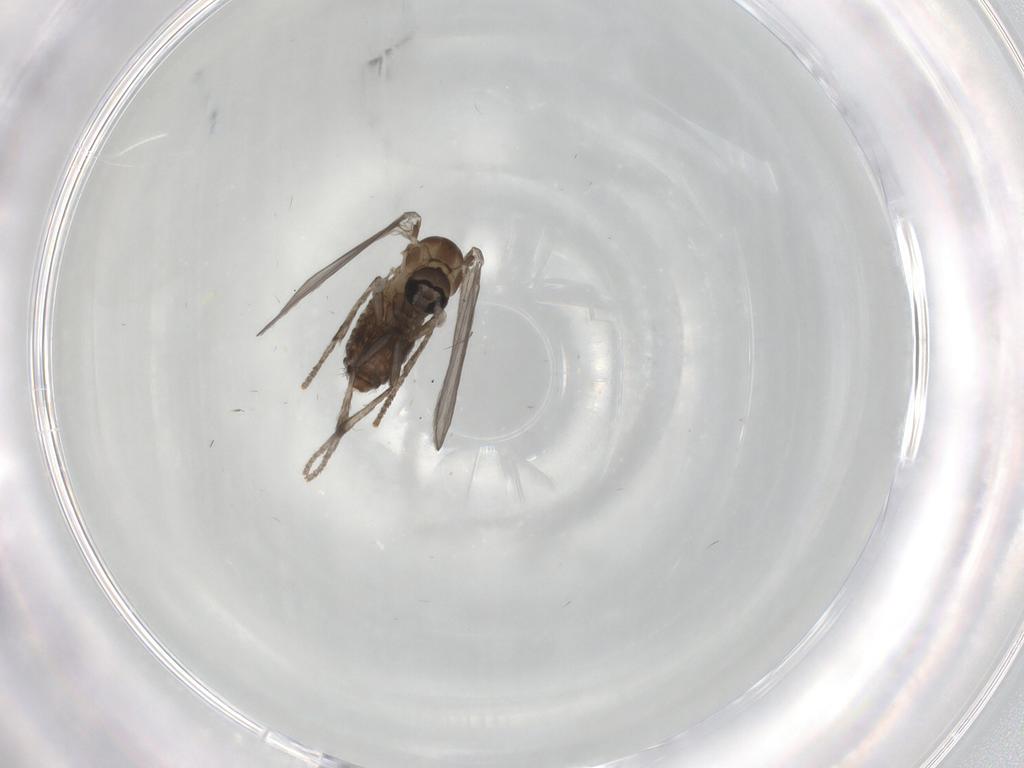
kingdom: Animalia
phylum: Arthropoda
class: Insecta
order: Diptera
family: Psychodidae
